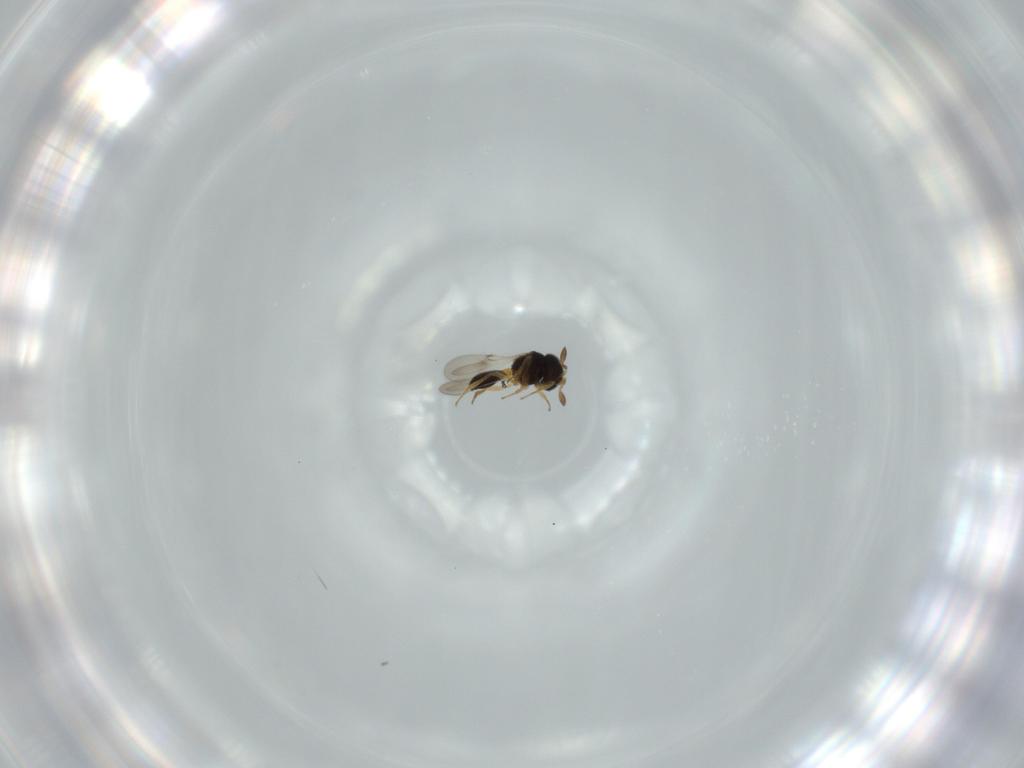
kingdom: Animalia
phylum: Arthropoda
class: Insecta
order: Hymenoptera
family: Scelionidae
